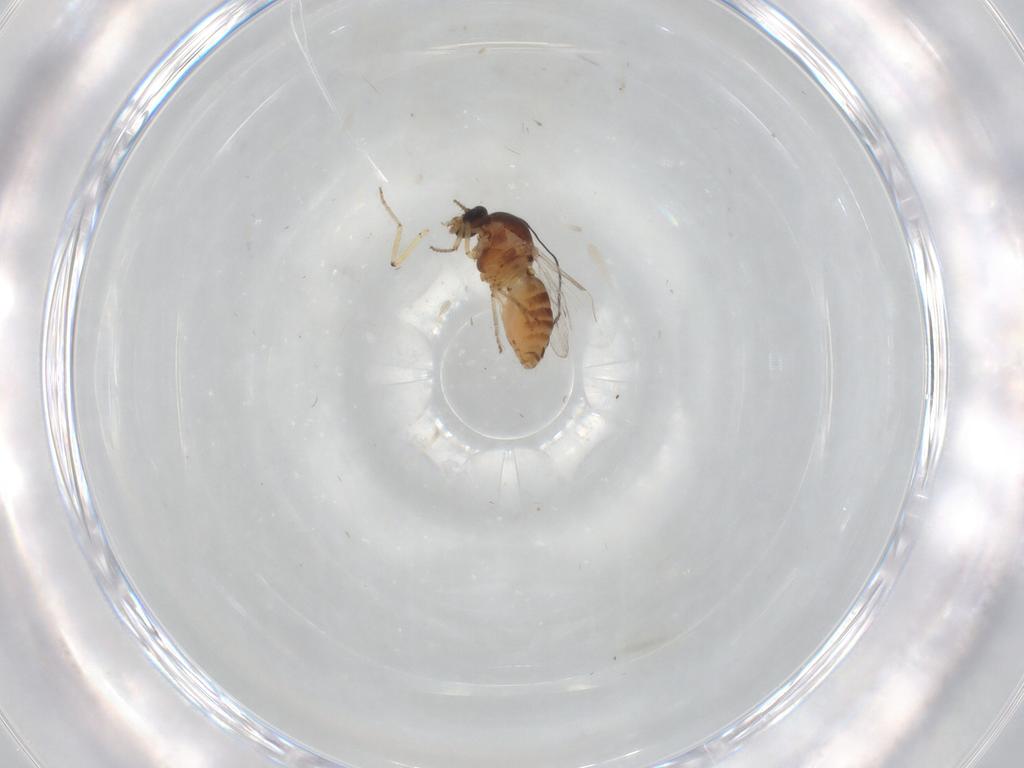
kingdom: Animalia
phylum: Arthropoda
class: Insecta
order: Diptera
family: Ceratopogonidae
